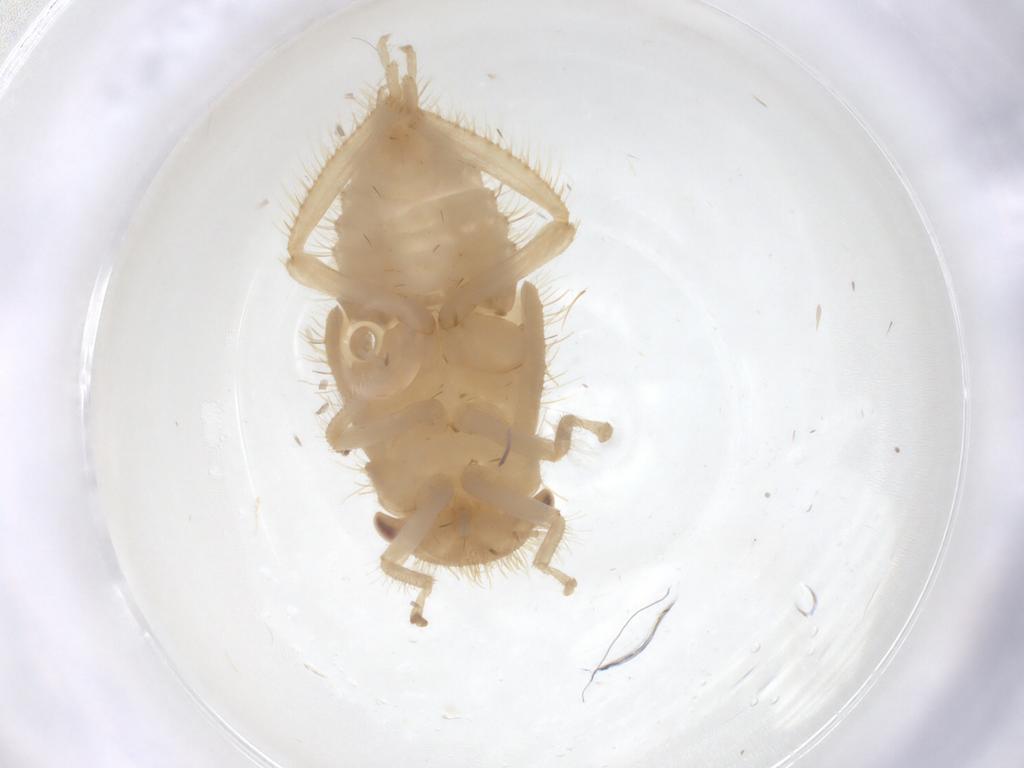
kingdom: Animalia
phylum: Arthropoda
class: Insecta
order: Hemiptera
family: Cicadellidae
